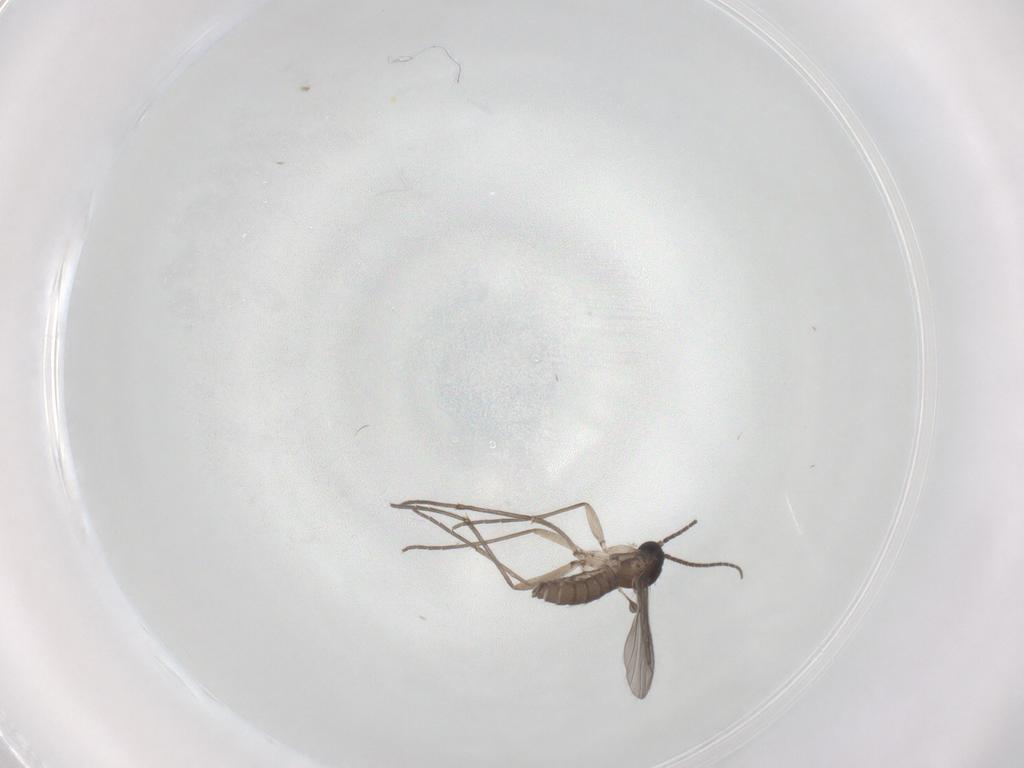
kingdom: Animalia
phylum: Arthropoda
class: Insecta
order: Diptera
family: Sciaridae
